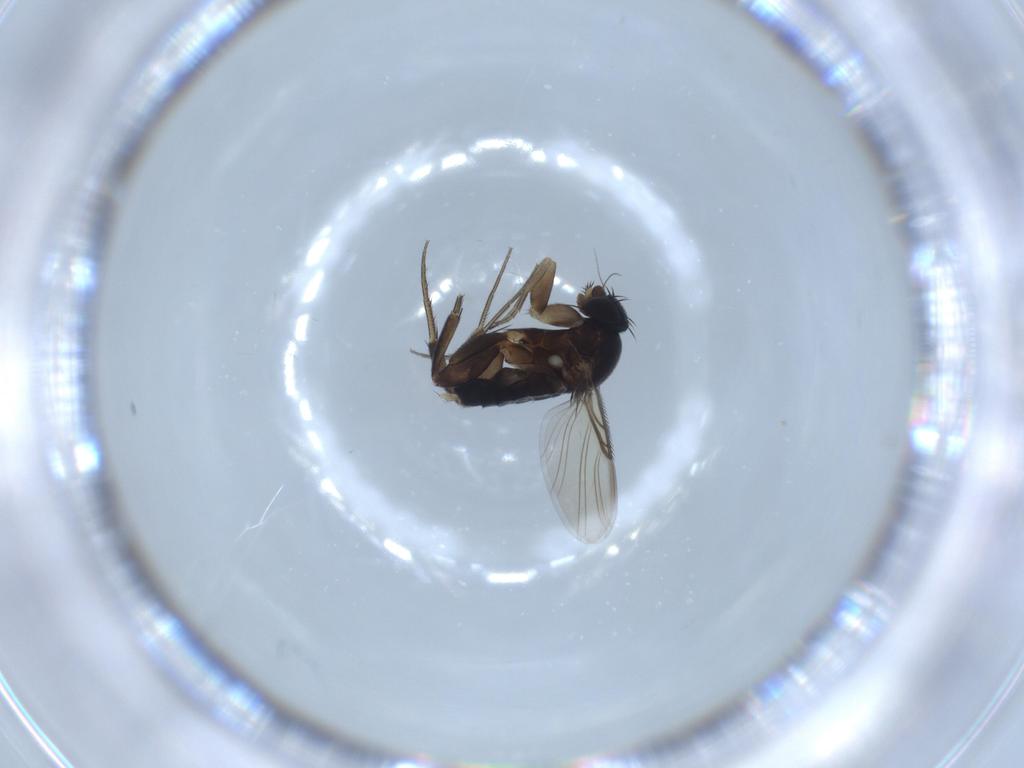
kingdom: Animalia
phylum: Arthropoda
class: Insecta
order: Diptera
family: Phoridae
